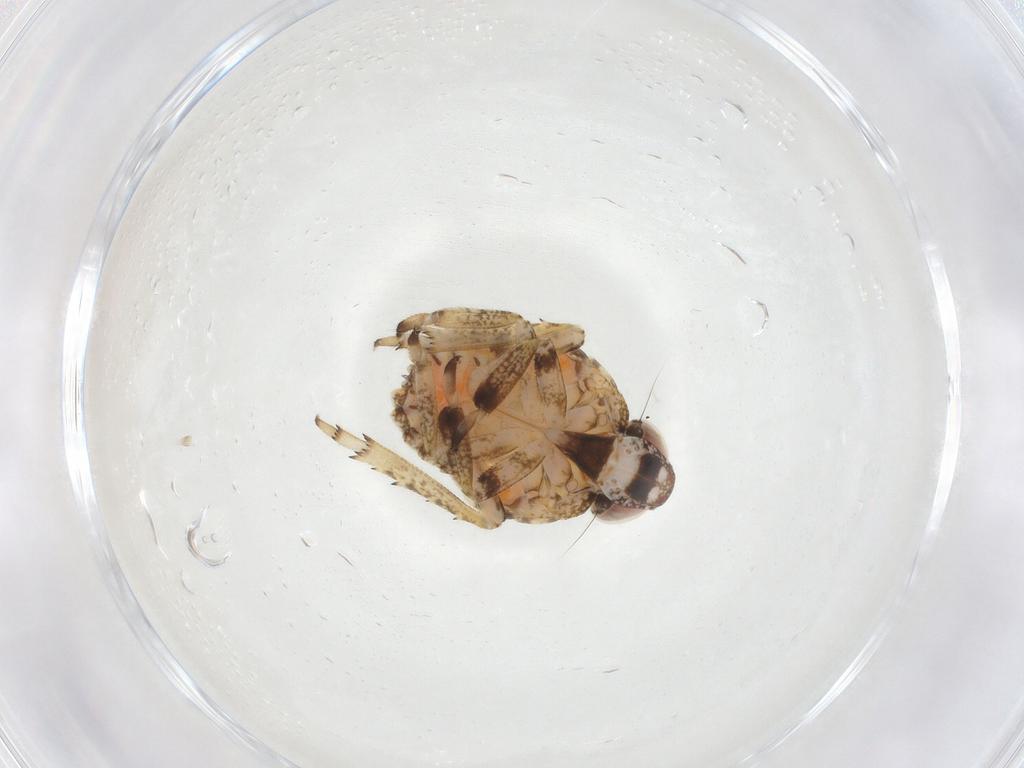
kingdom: Animalia
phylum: Arthropoda
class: Insecta
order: Hemiptera
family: Issidae
